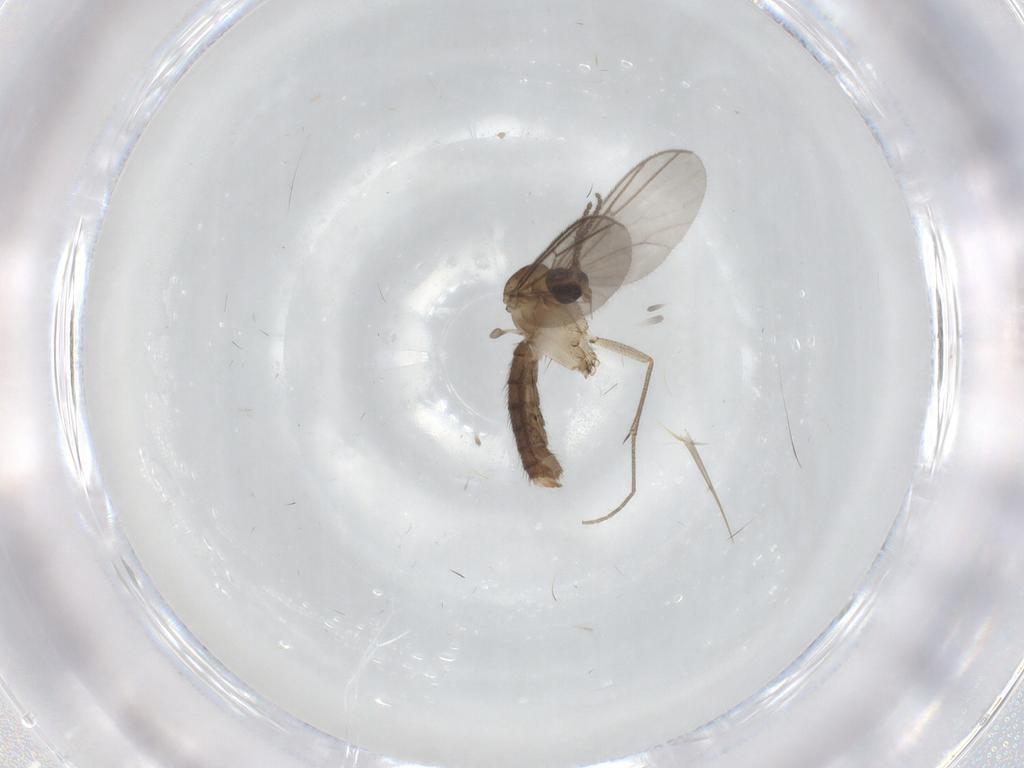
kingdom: Animalia
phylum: Arthropoda
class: Insecta
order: Diptera
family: Mycetophilidae
